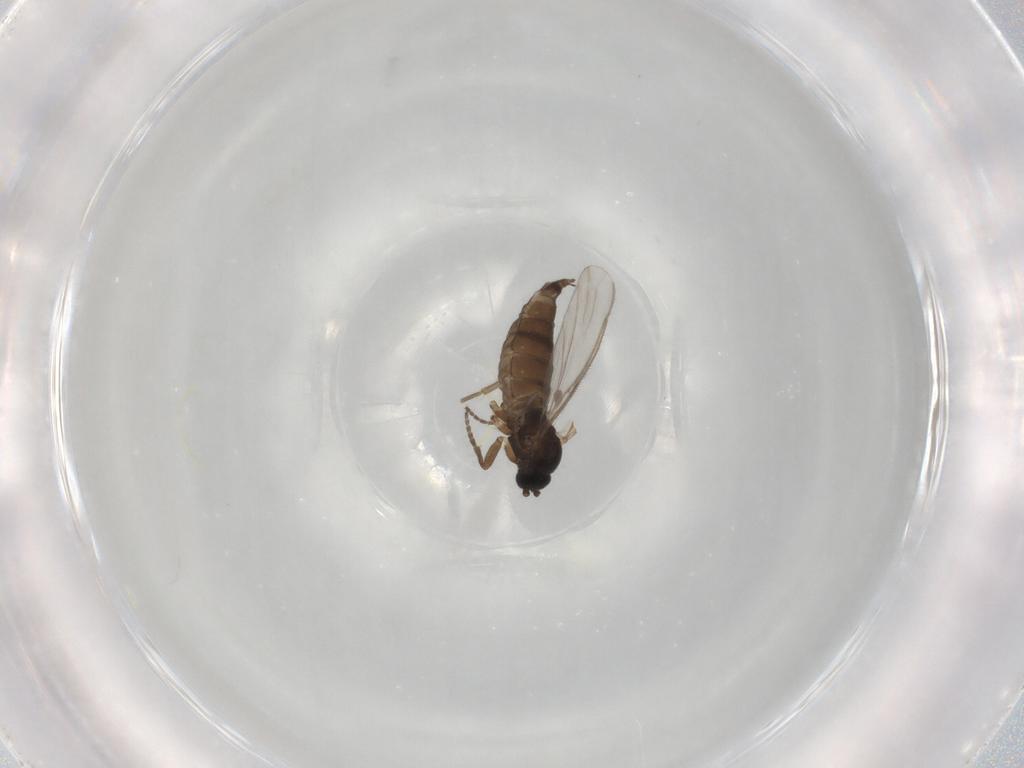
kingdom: Animalia
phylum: Arthropoda
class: Insecta
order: Diptera
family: Sciaridae
